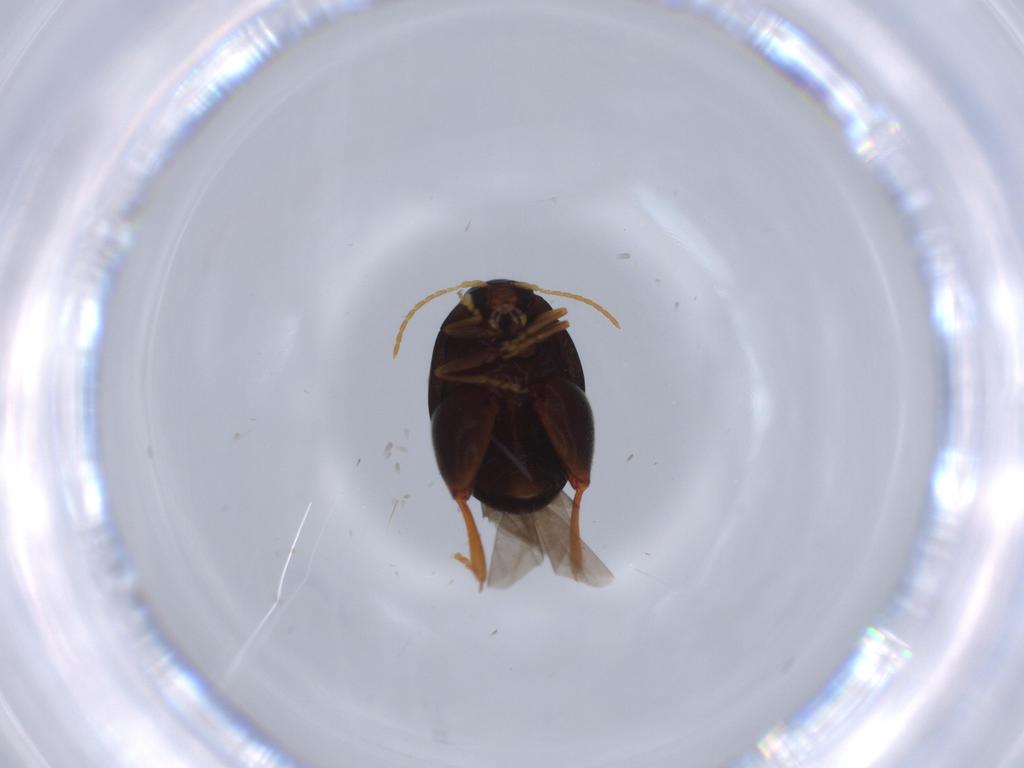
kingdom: Animalia
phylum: Arthropoda
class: Insecta
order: Coleoptera
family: Chrysomelidae
